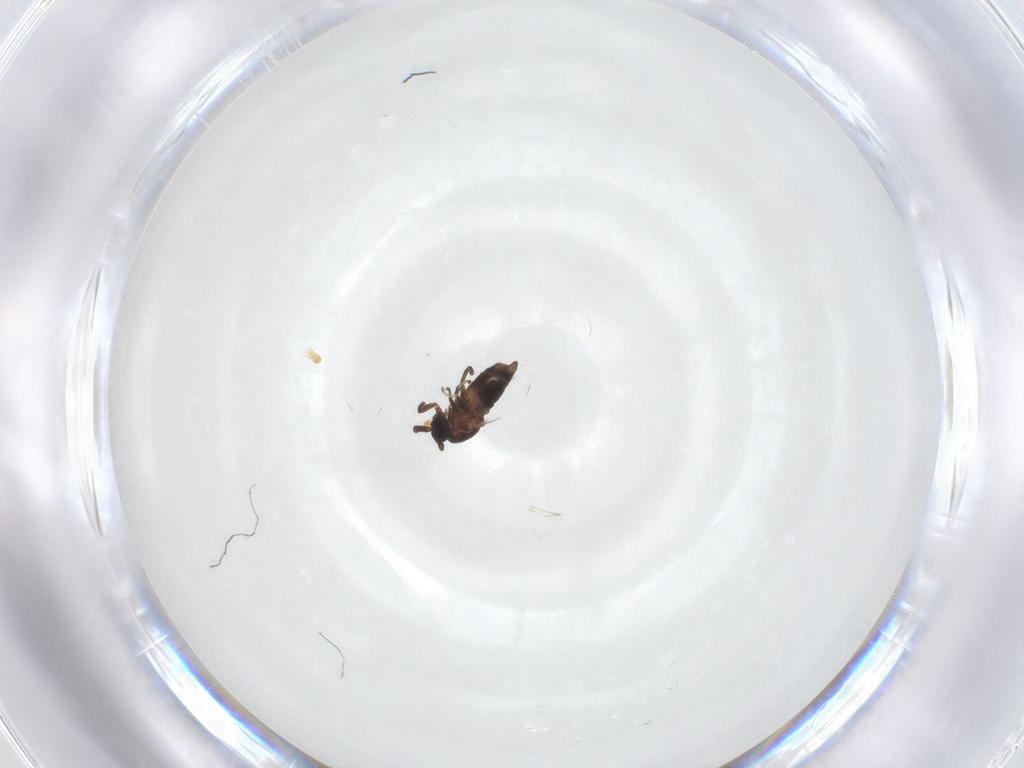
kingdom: Animalia
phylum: Arthropoda
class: Insecta
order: Diptera
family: Scatopsidae
